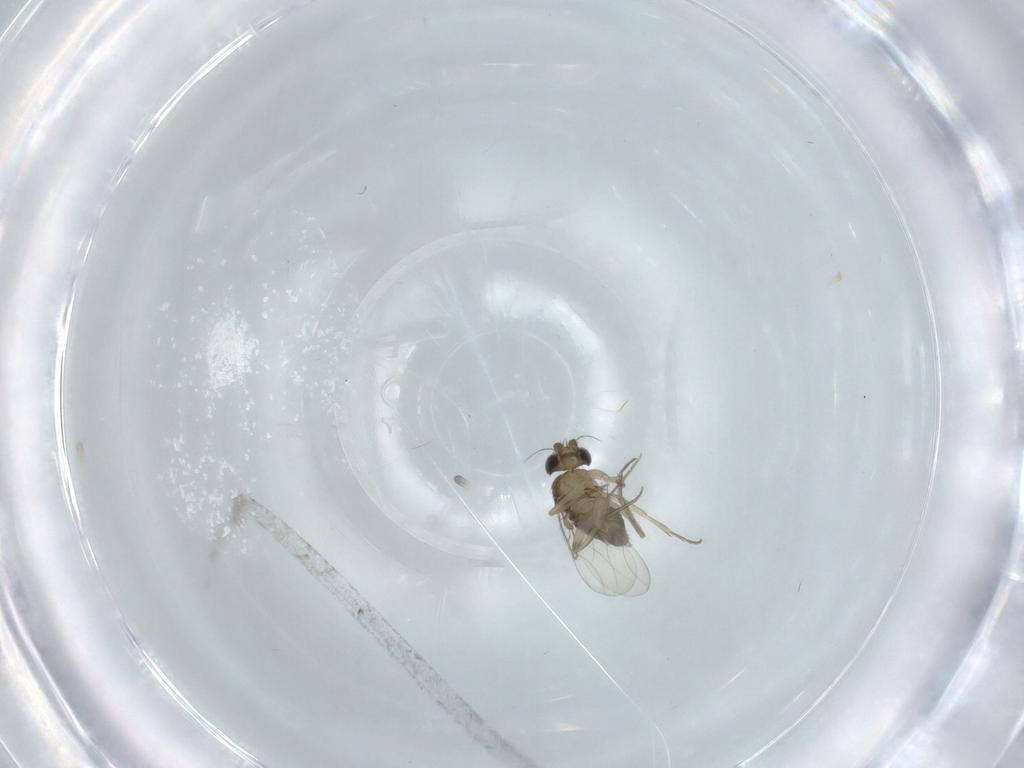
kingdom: Animalia
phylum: Arthropoda
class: Insecta
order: Diptera
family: Phoridae
